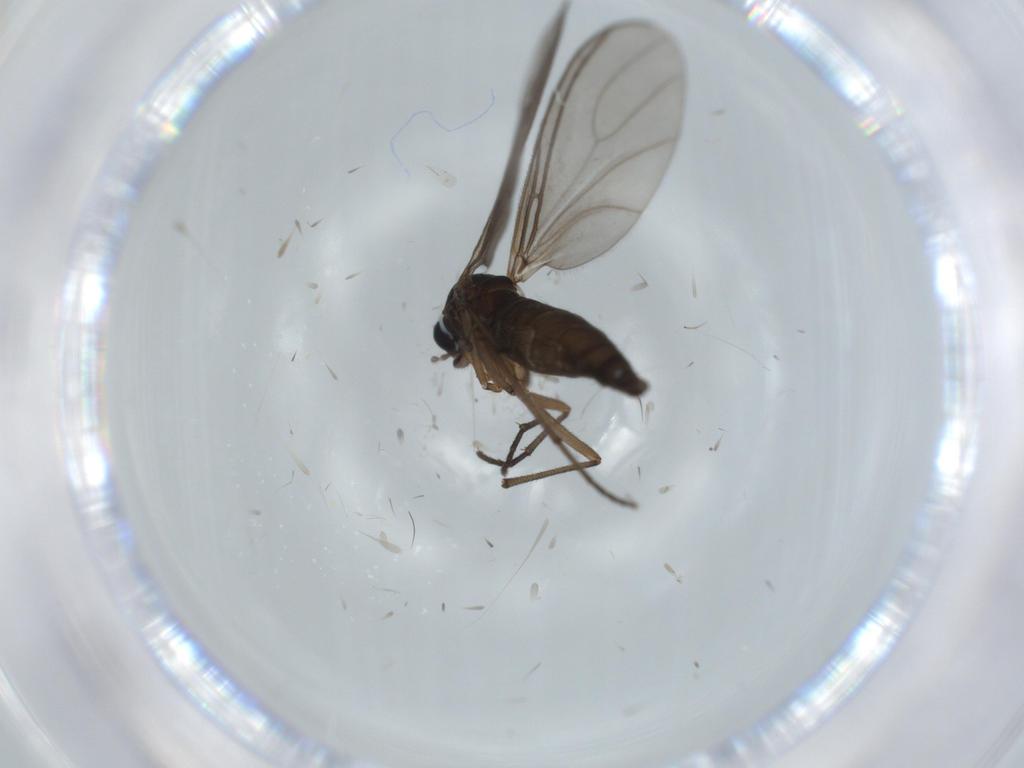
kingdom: Animalia
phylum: Arthropoda
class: Insecta
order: Diptera
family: Sciaridae
